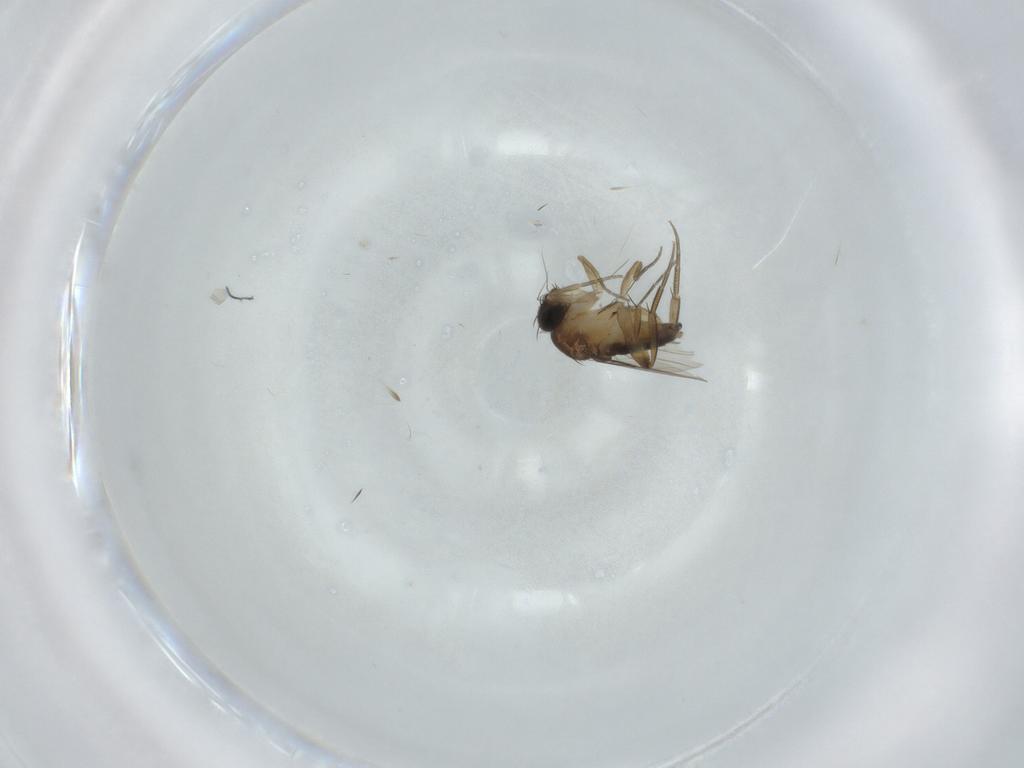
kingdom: Animalia
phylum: Arthropoda
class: Insecta
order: Diptera
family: Phoridae
